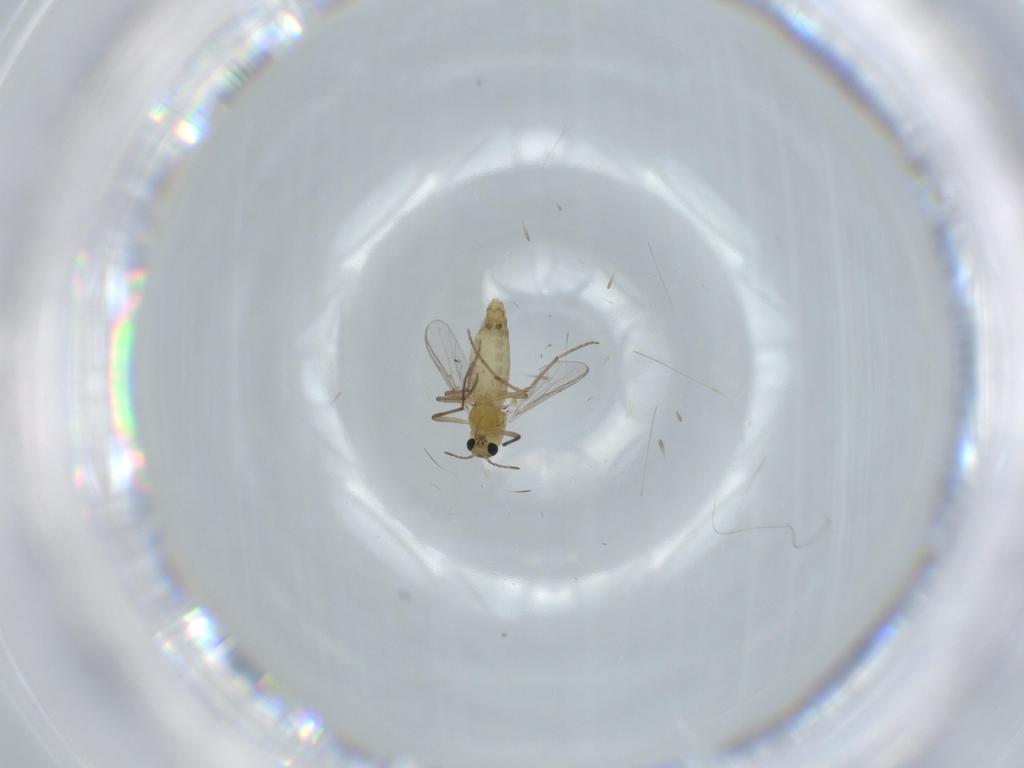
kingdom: Animalia
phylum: Arthropoda
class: Insecta
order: Diptera
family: Chironomidae
